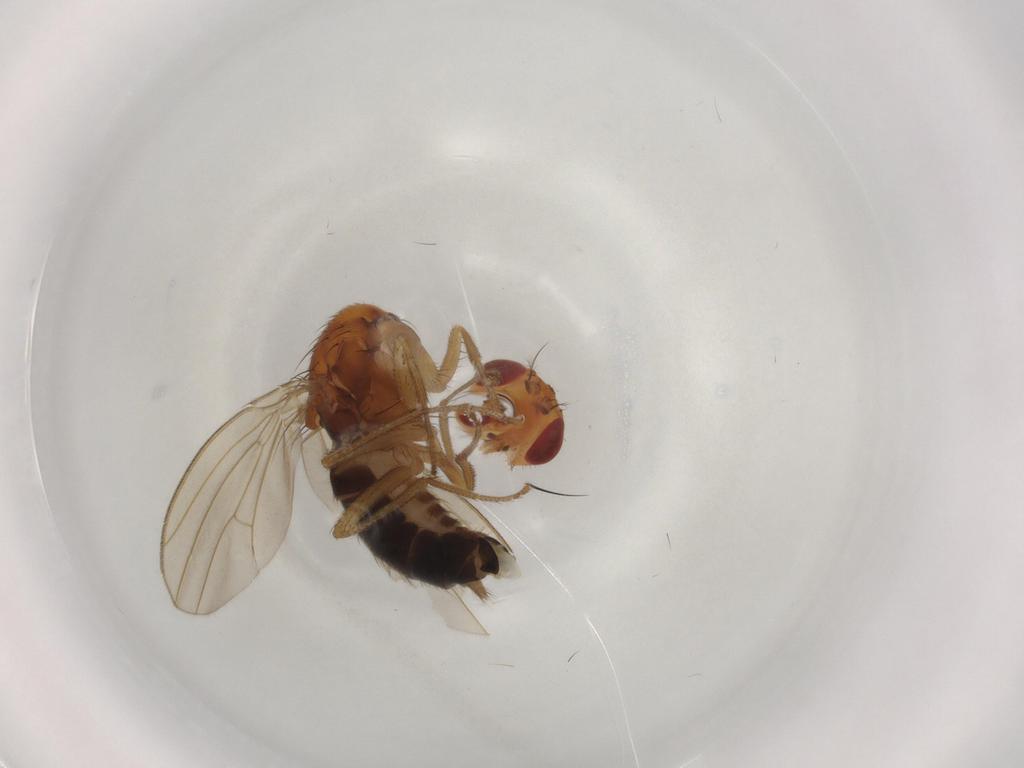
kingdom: Animalia
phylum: Arthropoda
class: Insecta
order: Diptera
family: Drosophilidae
